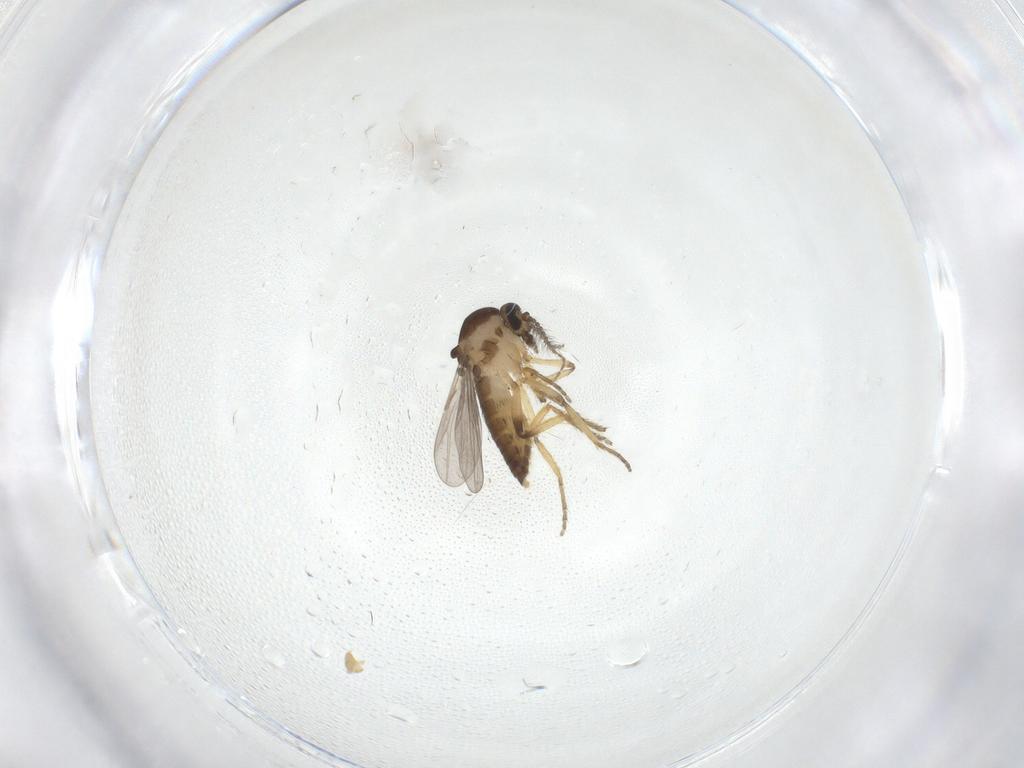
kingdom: Animalia
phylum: Arthropoda
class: Insecta
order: Diptera
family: Ceratopogonidae
